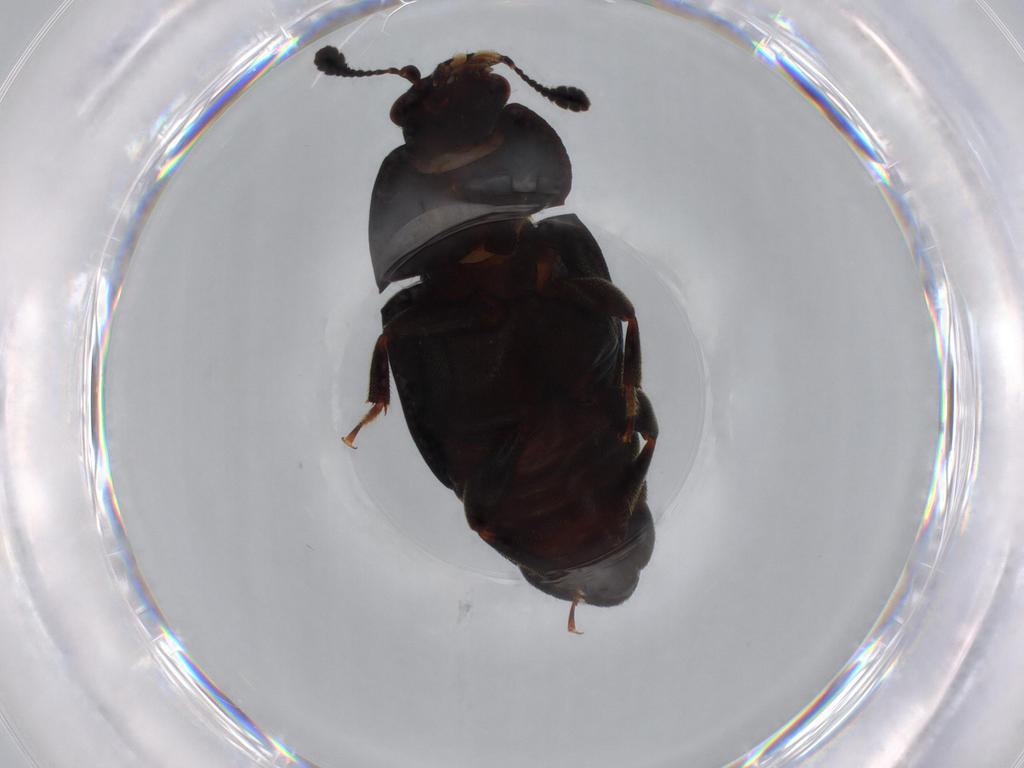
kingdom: Animalia
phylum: Arthropoda
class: Insecta
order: Coleoptera
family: Nitidulidae
